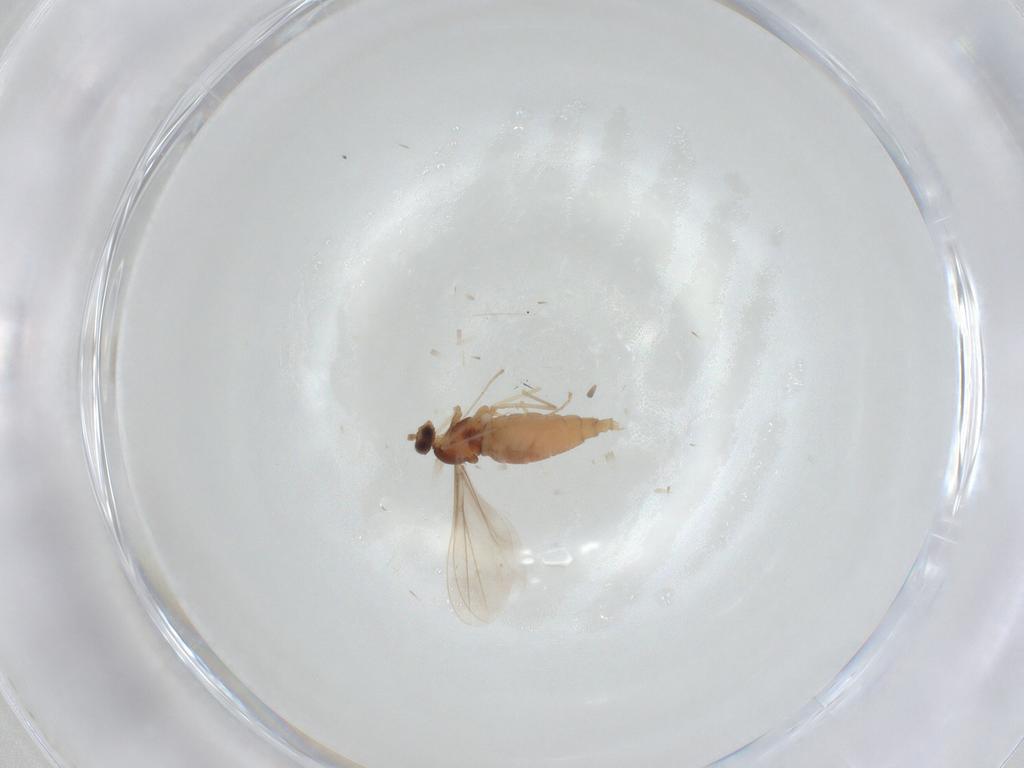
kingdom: Animalia
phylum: Arthropoda
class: Insecta
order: Diptera
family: Cecidomyiidae
